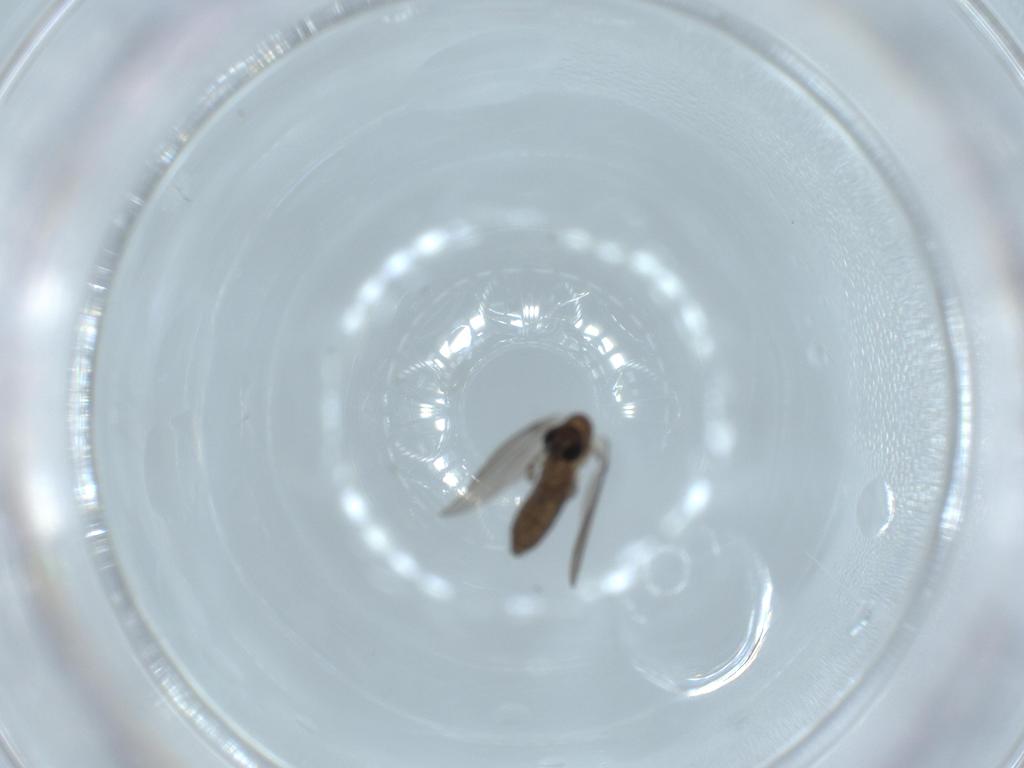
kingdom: Animalia
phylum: Arthropoda
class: Insecta
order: Diptera
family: Psychodidae
